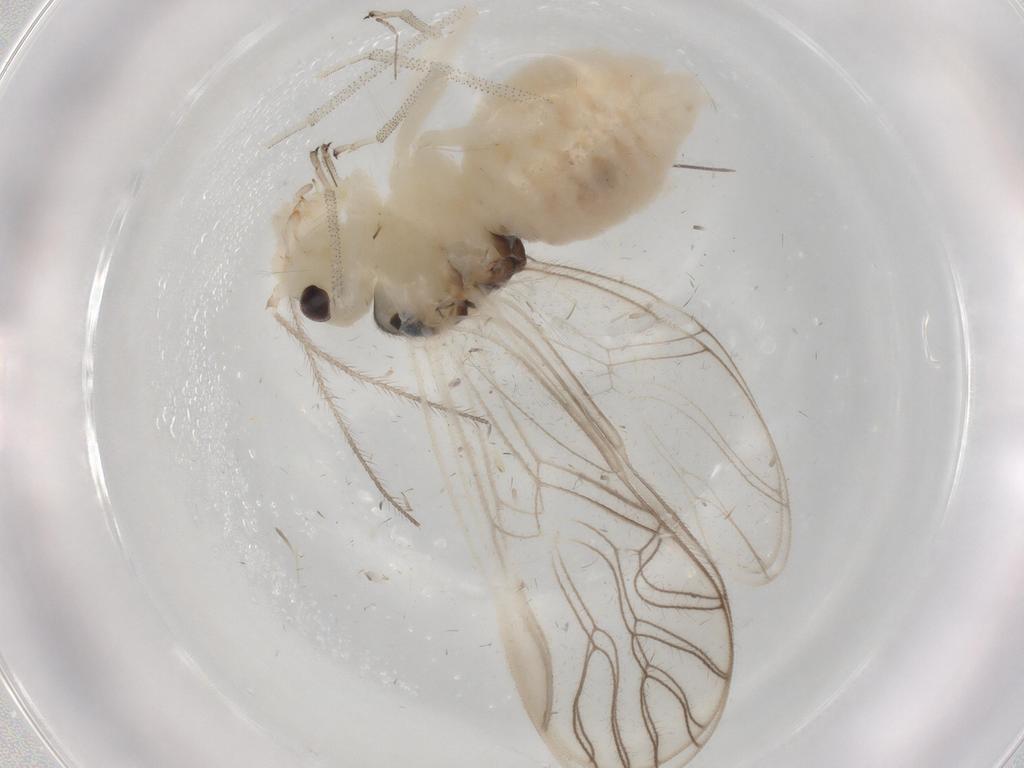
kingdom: Animalia
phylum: Arthropoda
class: Insecta
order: Psocodea
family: Amphipsocidae
